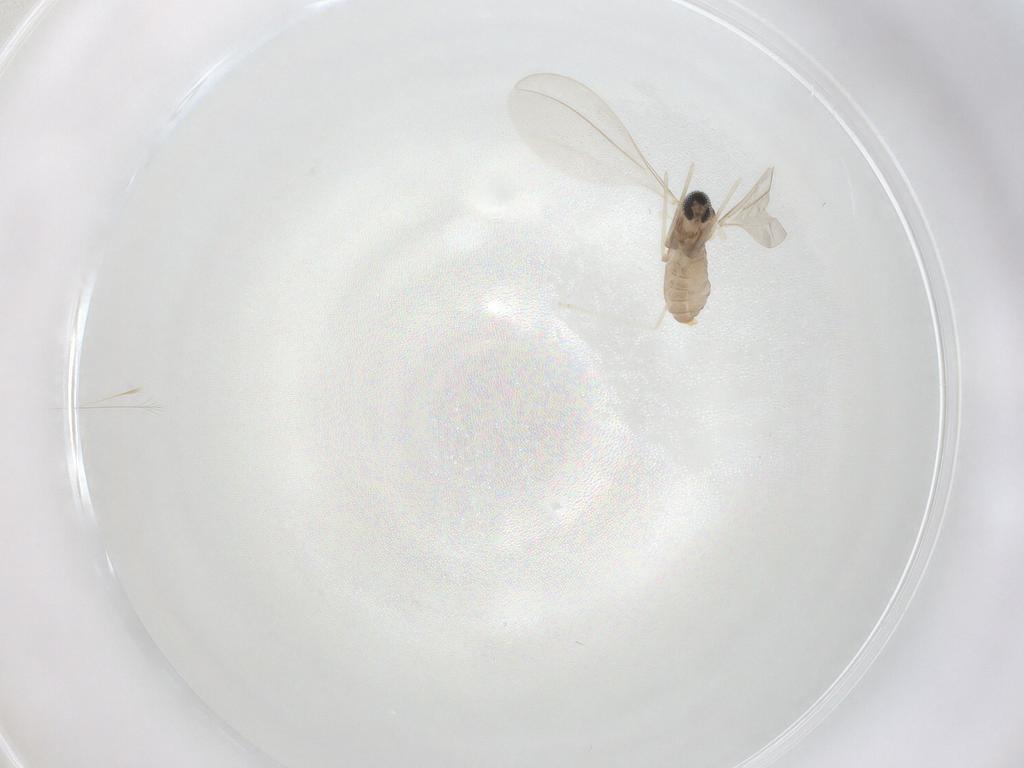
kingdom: Animalia
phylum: Arthropoda
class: Insecta
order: Diptera
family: Cecidomyiidae
